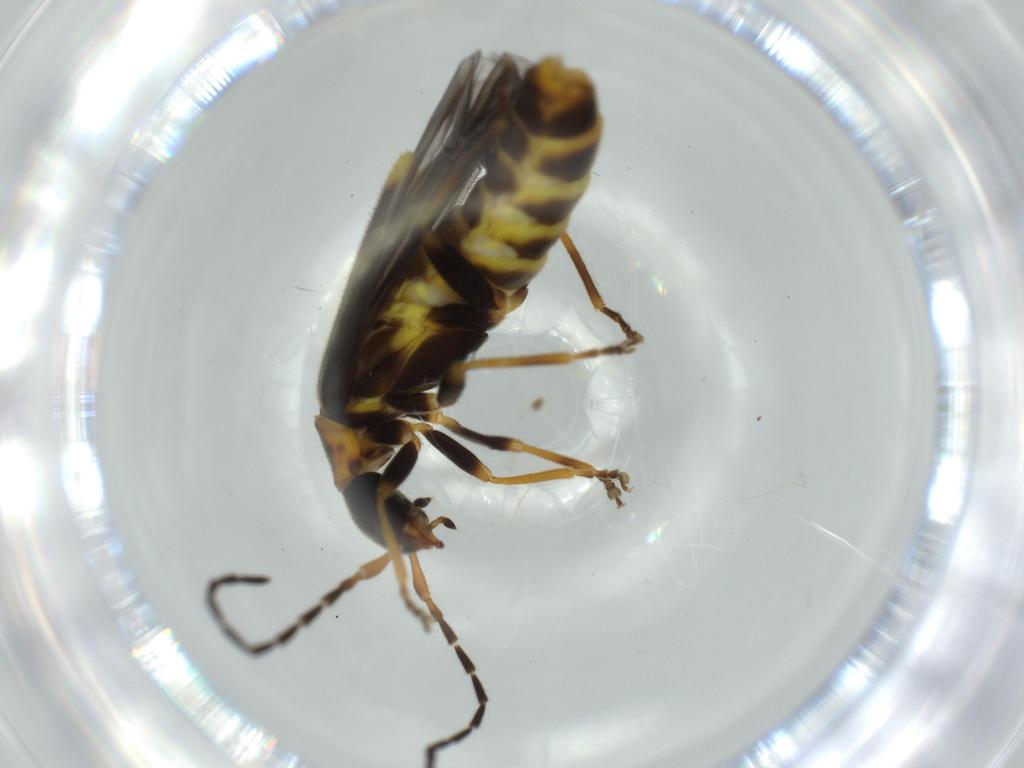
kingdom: Animalia
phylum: Arthropoda
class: Insecta
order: Coleoptera
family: Cantharidae
